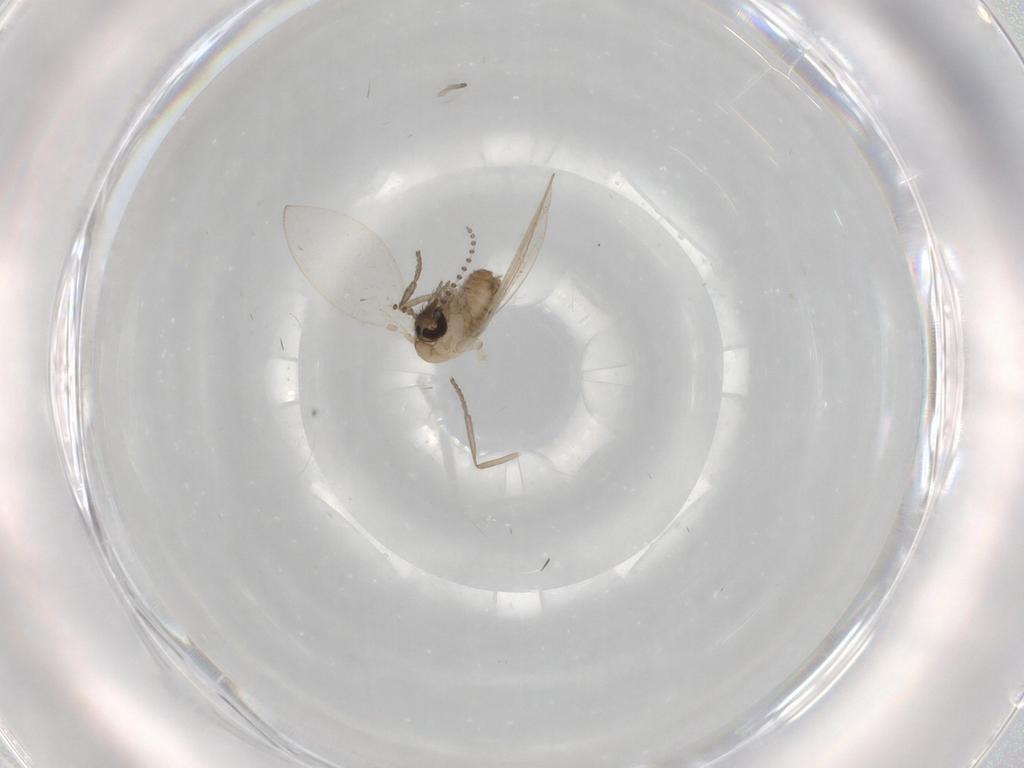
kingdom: Animalia
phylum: Arthropoda
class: Insecta
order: Diptera
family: Psychodidae
